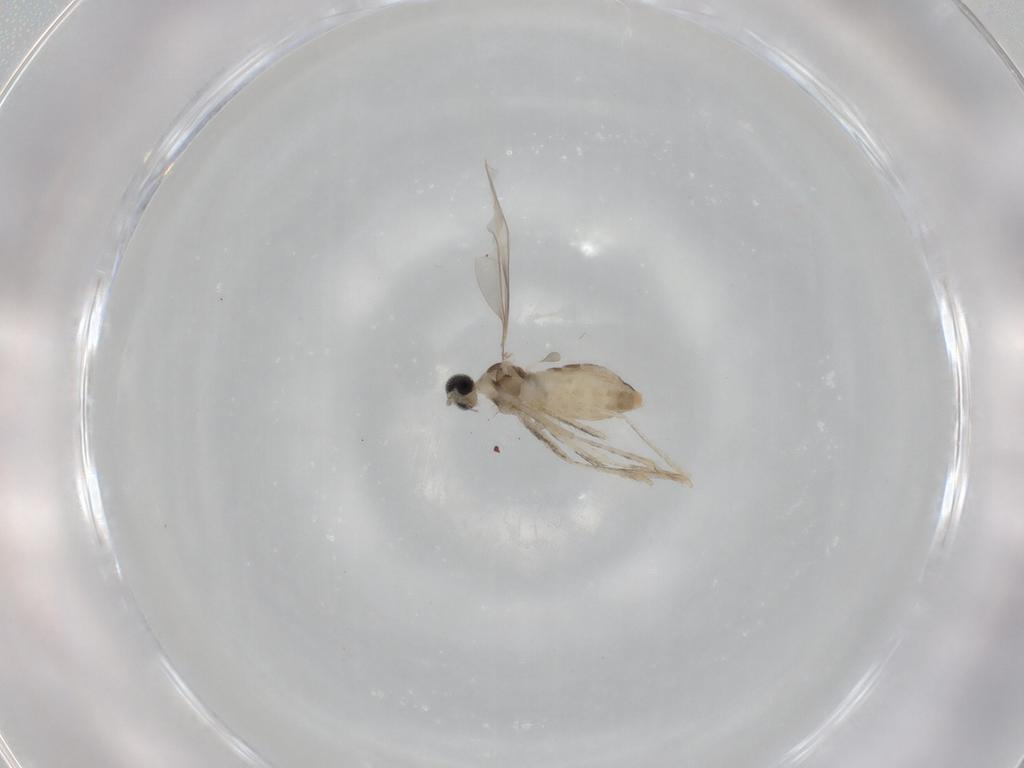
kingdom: Animalia
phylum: Arthropoda
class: Insecta
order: Diptera
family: Cecidomyiidae
